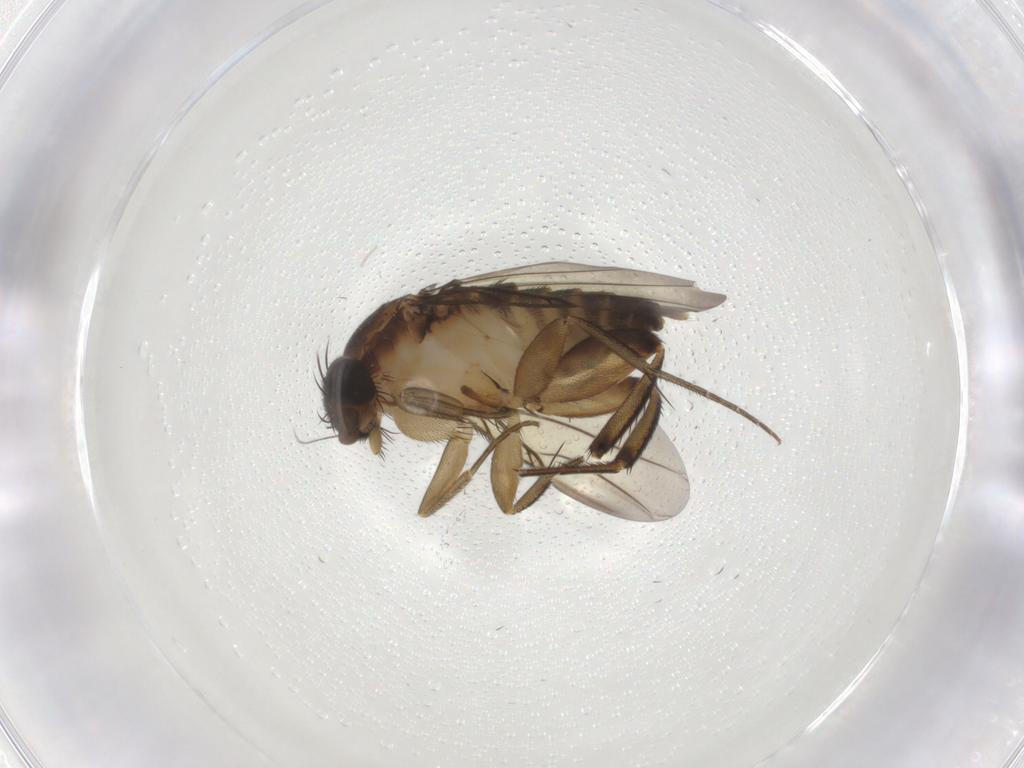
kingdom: Animalia
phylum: Arthropoda
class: Insecta
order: Diptera
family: Phoridae
